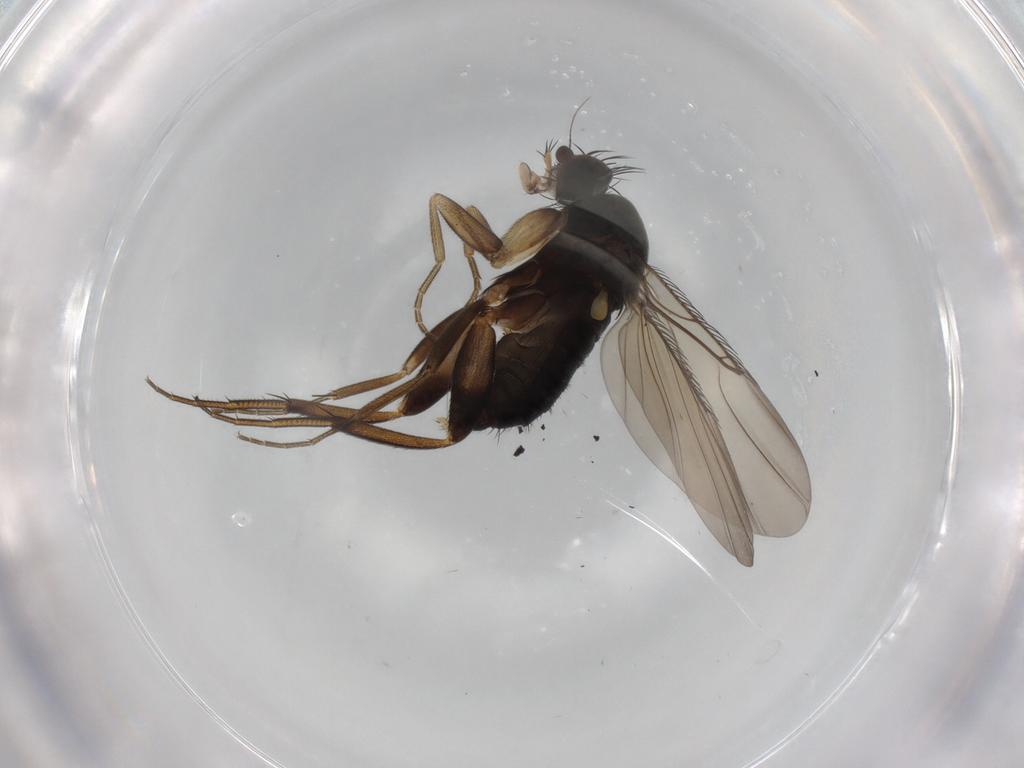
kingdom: Animalia
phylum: Arthropoda
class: Insecta
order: Diptera
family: Phoridae
